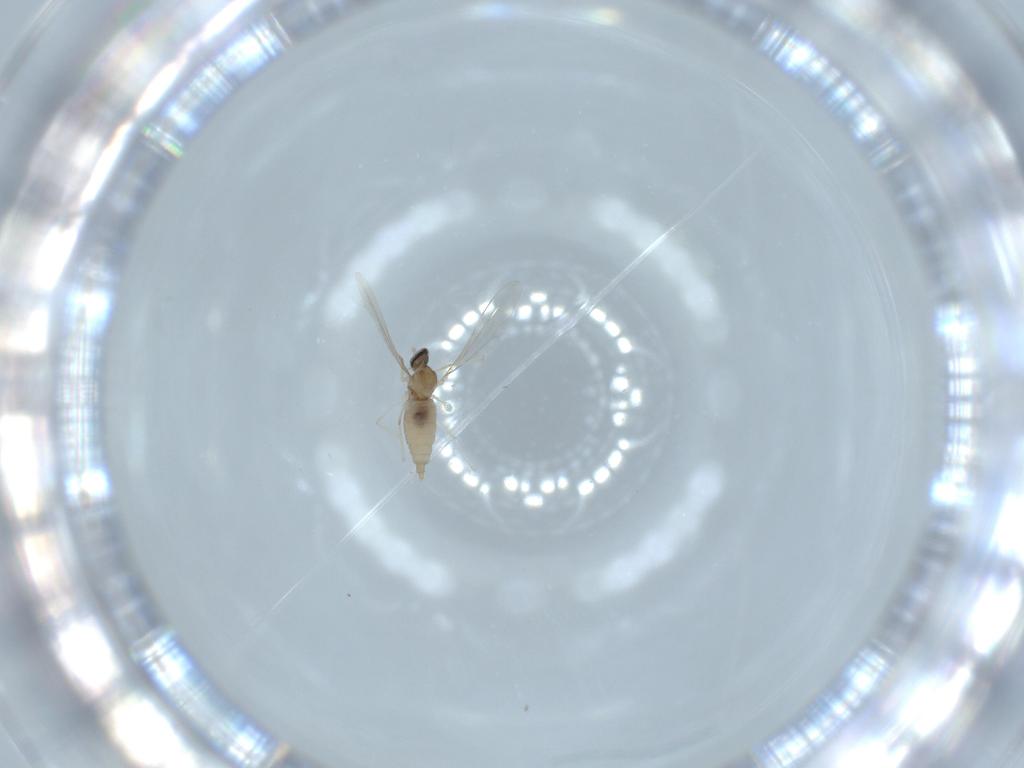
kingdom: Animalia
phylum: Arthropoda
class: Insecta
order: Diptera
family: Cecidomyiidae
